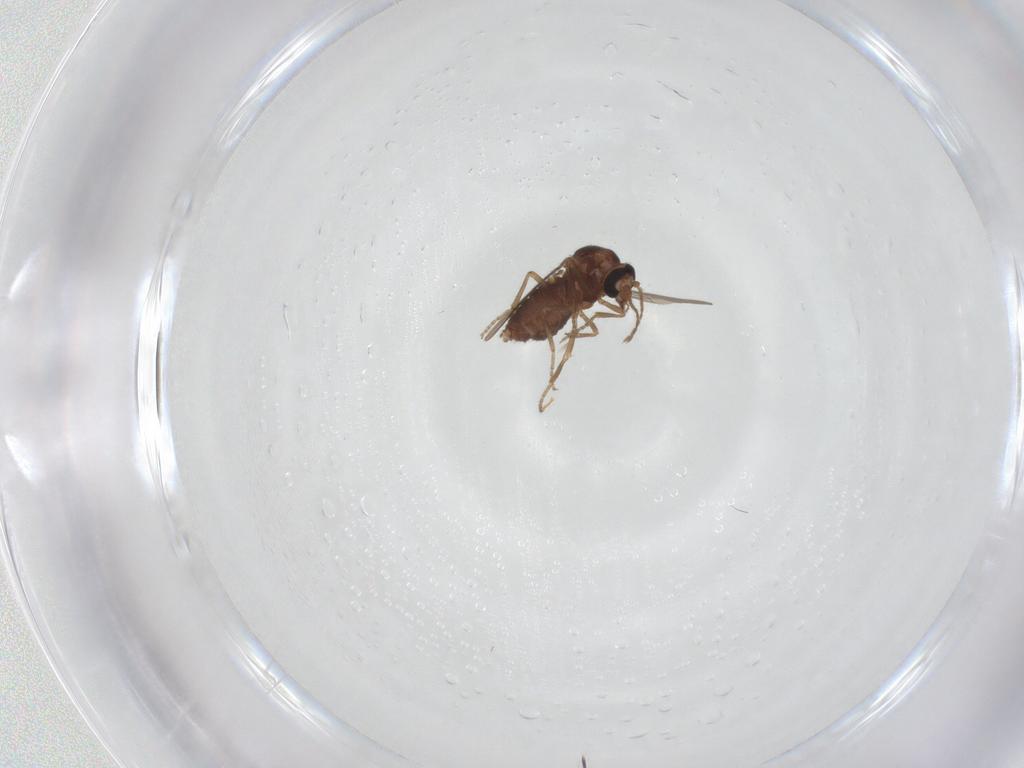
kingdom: Animalia
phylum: Arthropoda
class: Insecta
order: Diptera
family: Ceratopogonidae
